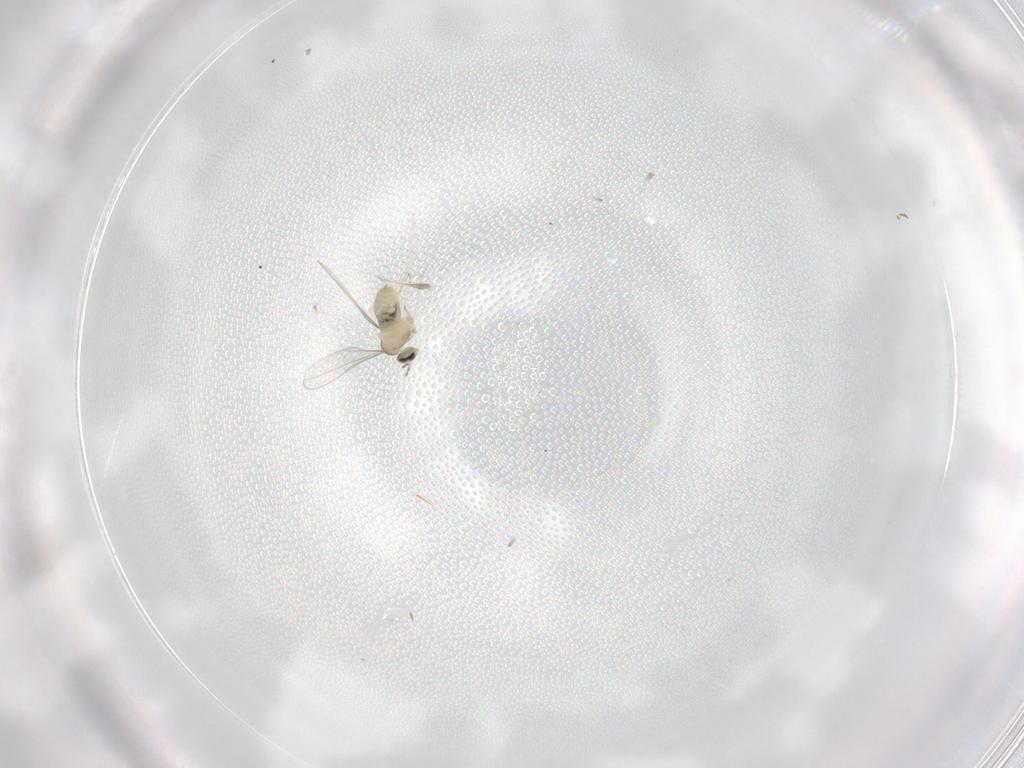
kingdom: Animalia
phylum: Arthropoda
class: Insecta
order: Diptera
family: Cecidomyiidae
